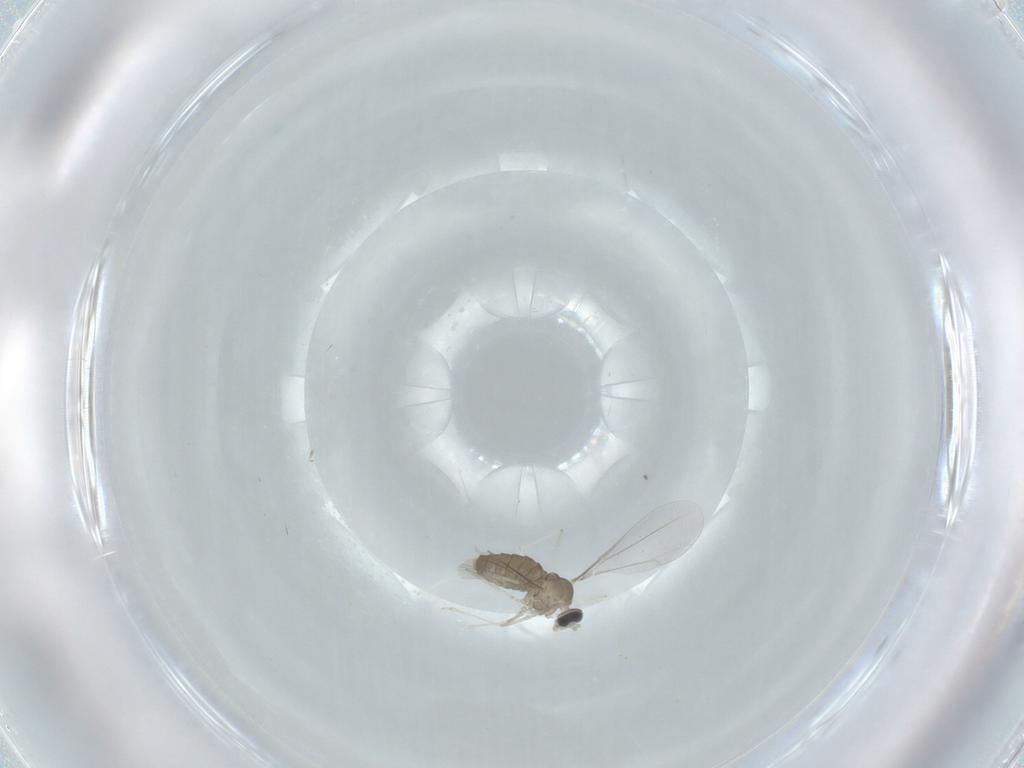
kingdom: Animalia
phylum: Arthropoda
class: Insecta
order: Diptera
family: Cecidomyiidae
